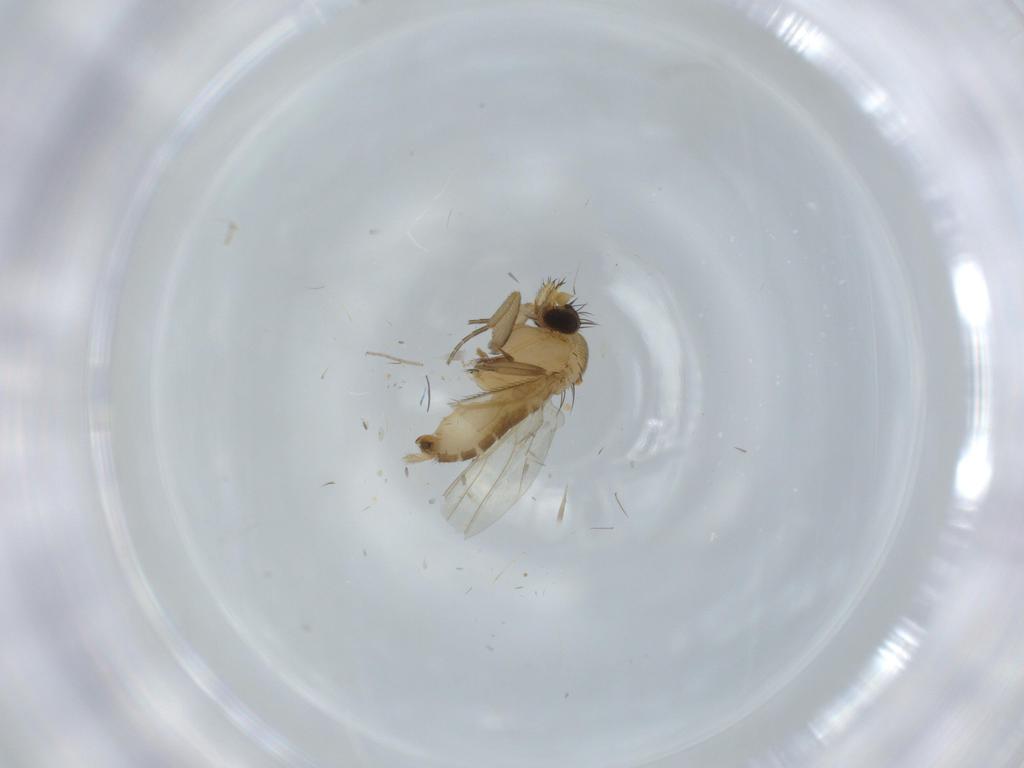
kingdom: Animalia
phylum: Arthropoda
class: Insecta
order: Diptera
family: Phoridae
